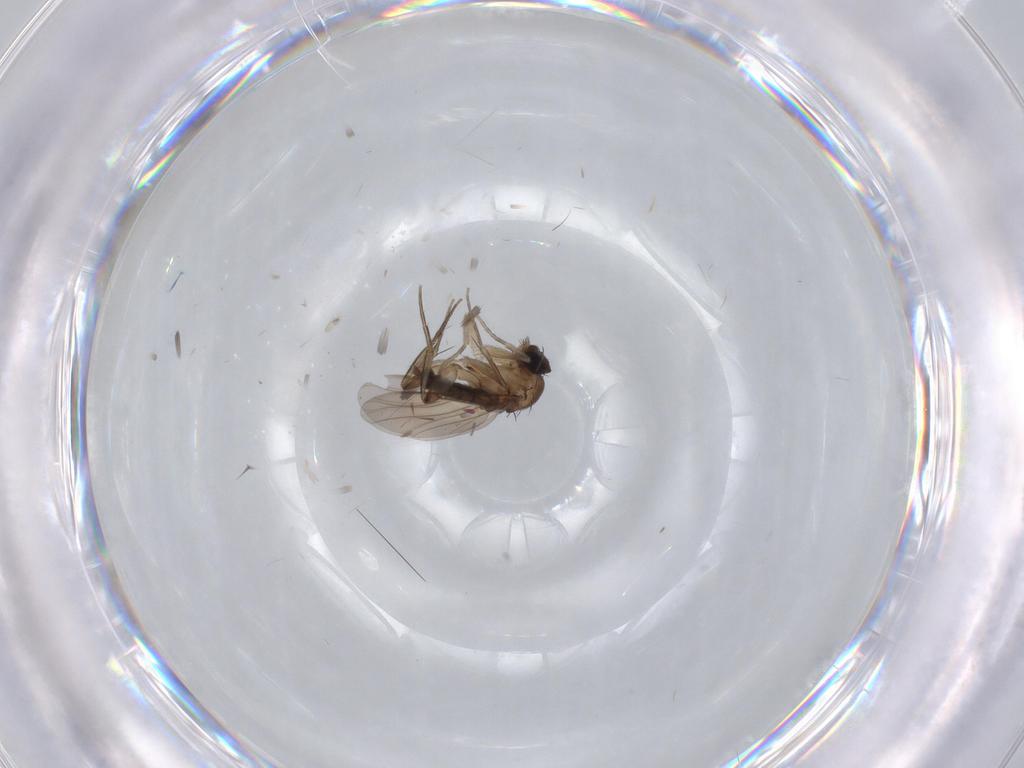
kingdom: Animalia
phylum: Arthropoda
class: Insecta
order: Diptera
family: Phoridae
